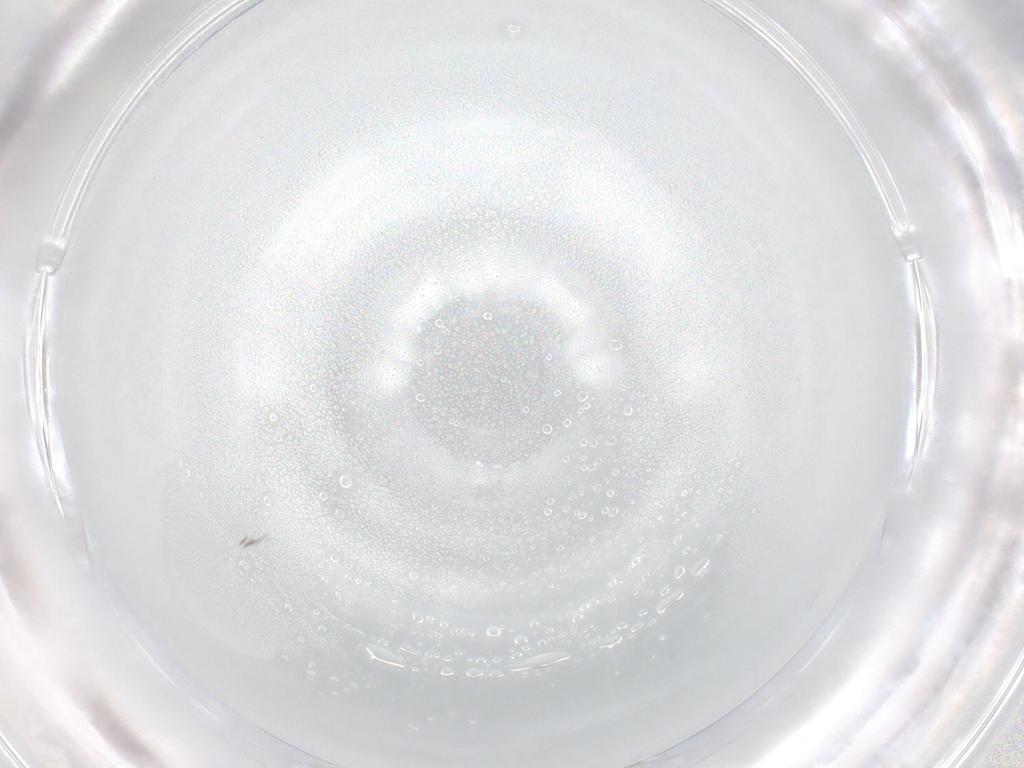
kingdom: Animalia
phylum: Arthropoda
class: Insecta
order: Diptera
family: Cecidomyiidae
